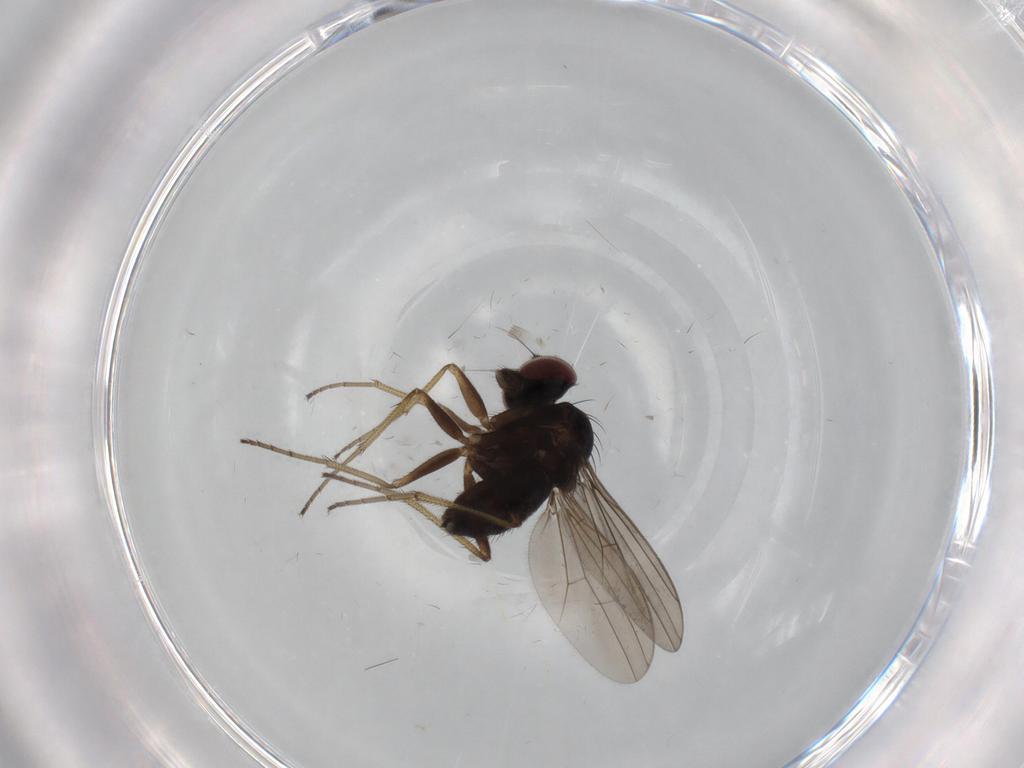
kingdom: Animalia
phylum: Arthropoda
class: Insecta
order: Diptera
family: Dolichopodidae
